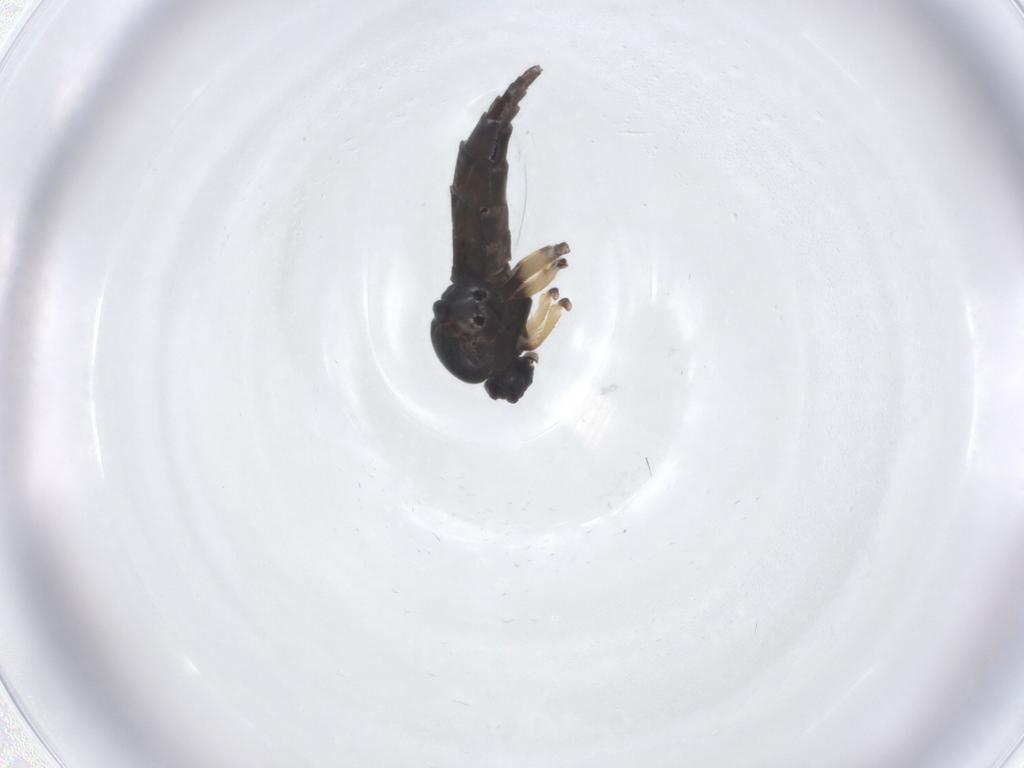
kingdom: Animalia
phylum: Arthropoda
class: Insecta
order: Diptera
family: Sciaridae
